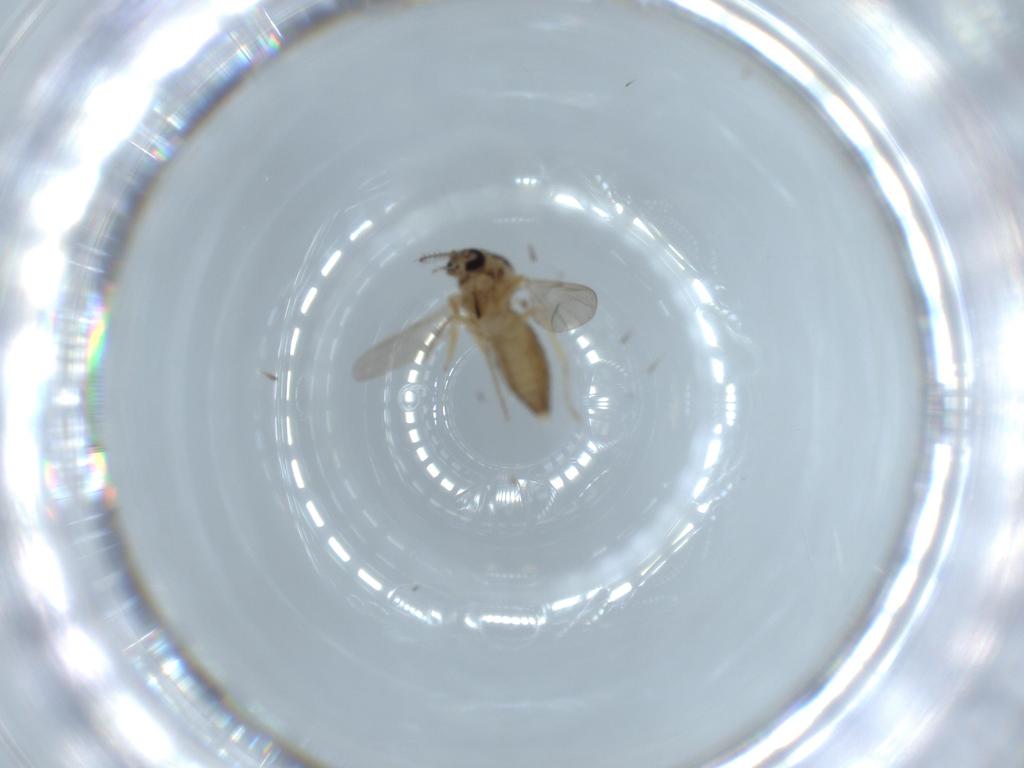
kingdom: Animalia
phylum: Arthropoda
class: Insecta
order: Diptera
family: Ceratopogonidae
